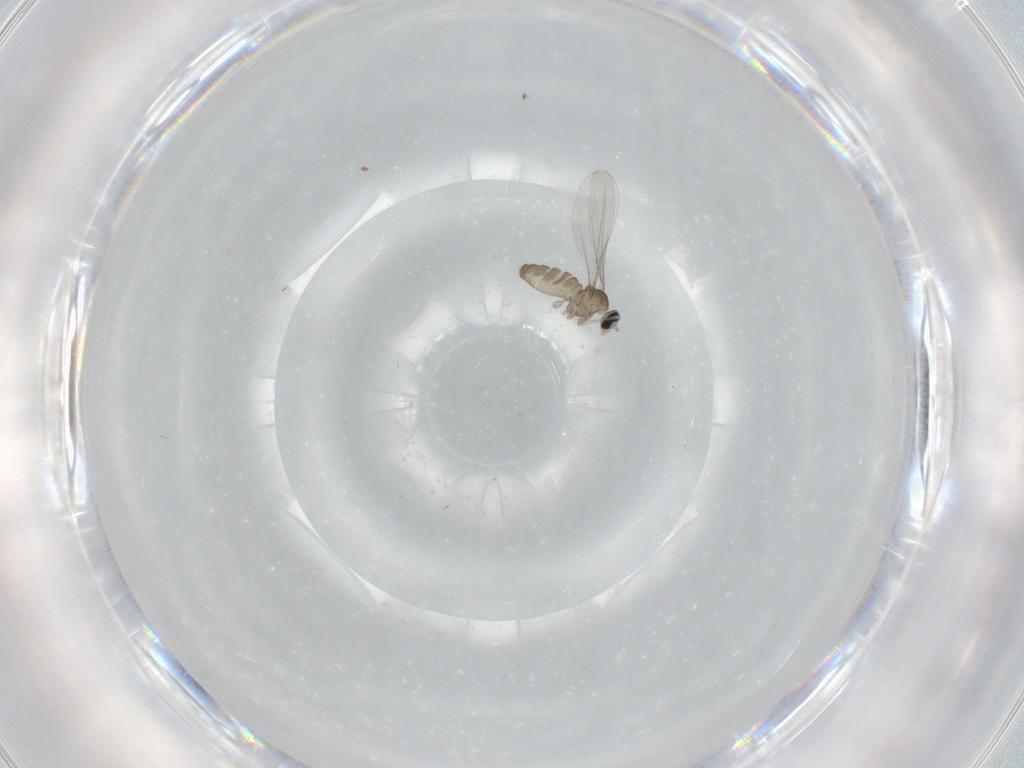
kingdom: Animalia
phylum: Arthropoda
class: Insecta
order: Diptera
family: Cecidomyiidae
